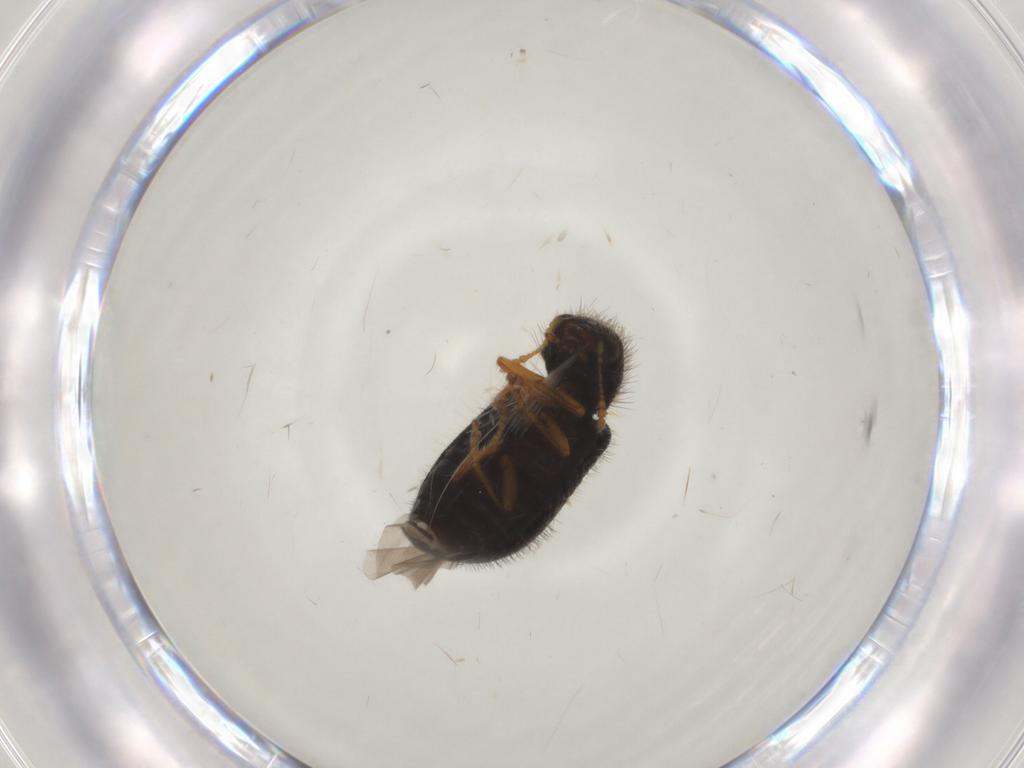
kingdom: Animalia
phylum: Arthropoda
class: Insecta
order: Coleoptera
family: Cleridae
